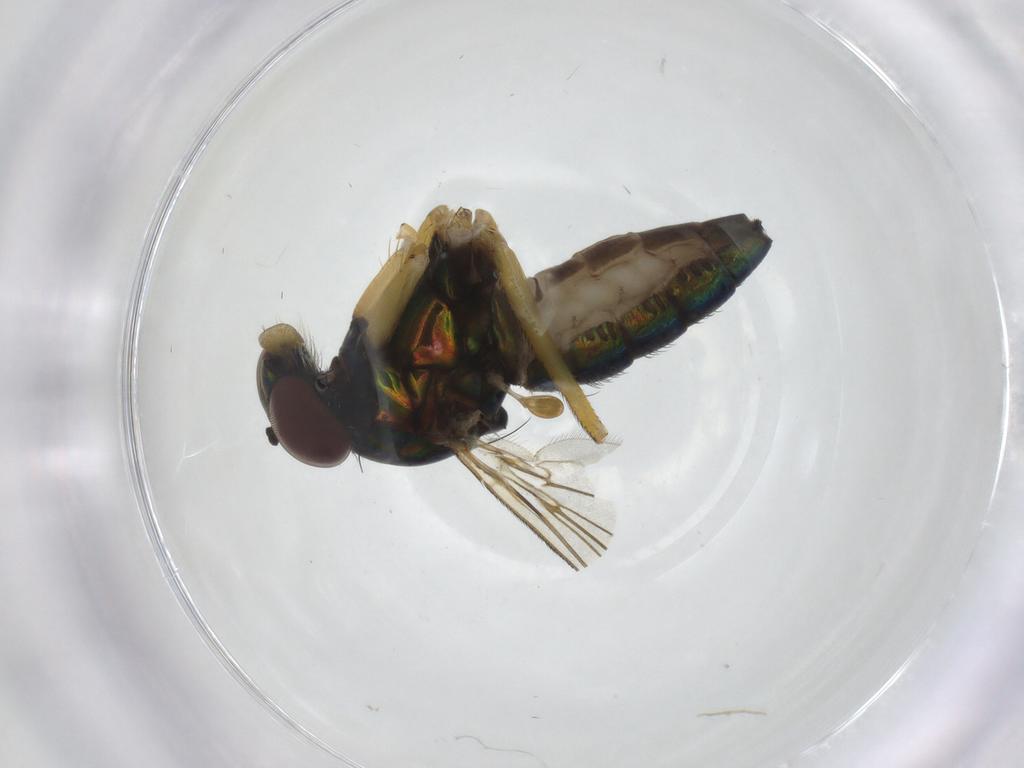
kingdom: Animalia
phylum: Arthropoda
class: Insecta
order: Diptera
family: Dolichopodidae
